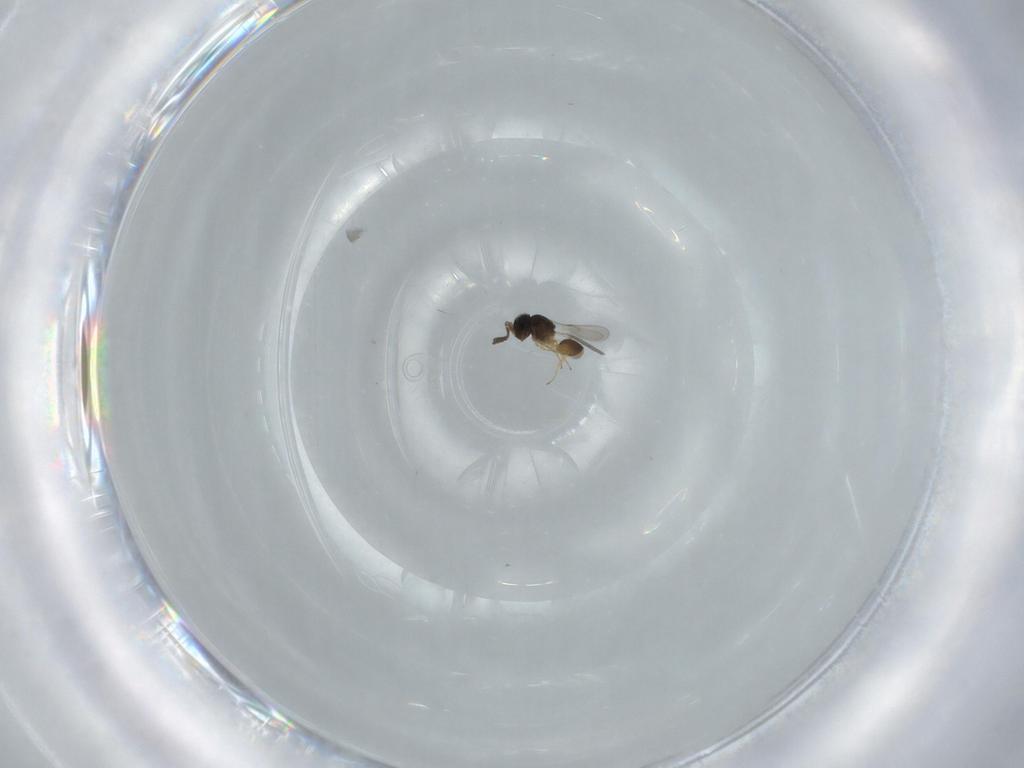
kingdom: Animalia
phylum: Arthropoda
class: Insecta
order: Hymenoptera
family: Scelionidae
